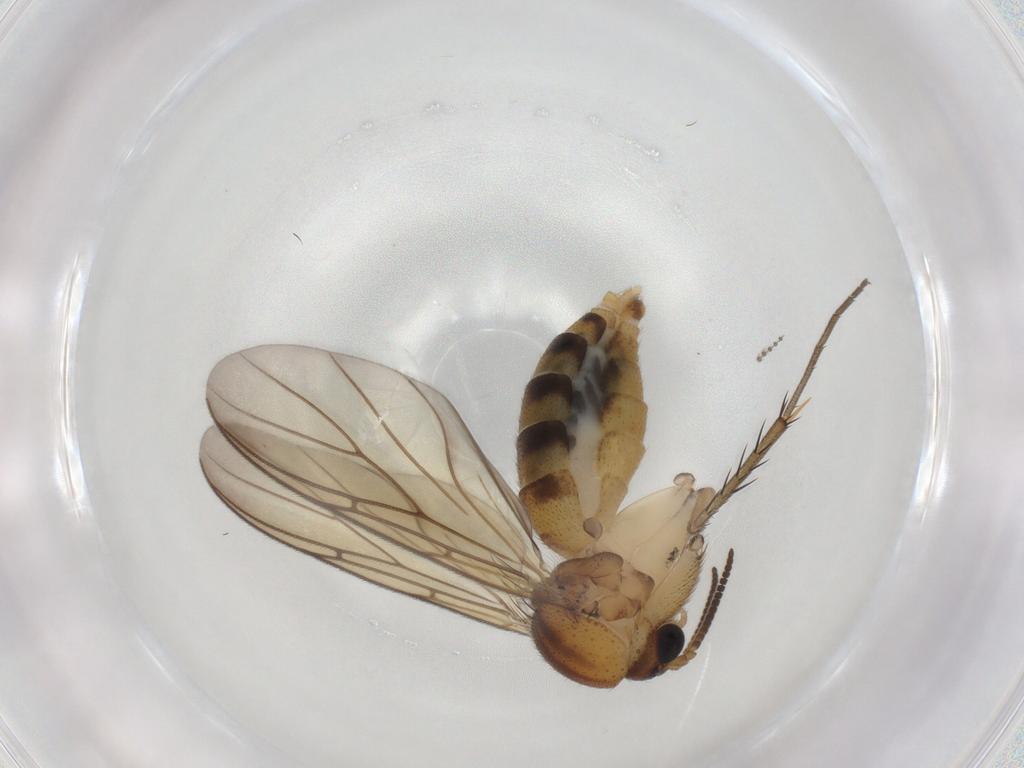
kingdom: Animalia
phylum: Arthropoda
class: Insecta
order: Diptera
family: Mycetophilidae
